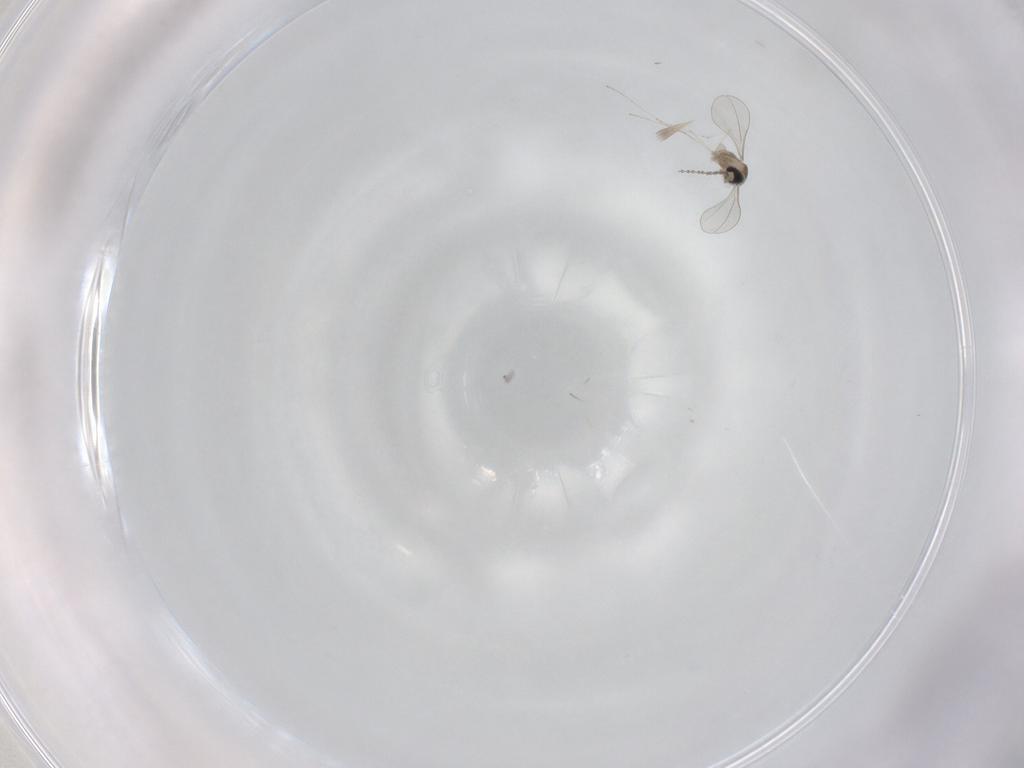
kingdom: Animalia
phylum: Arthropoda
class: Insecta
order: Diptera
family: Cecidomyiidae
